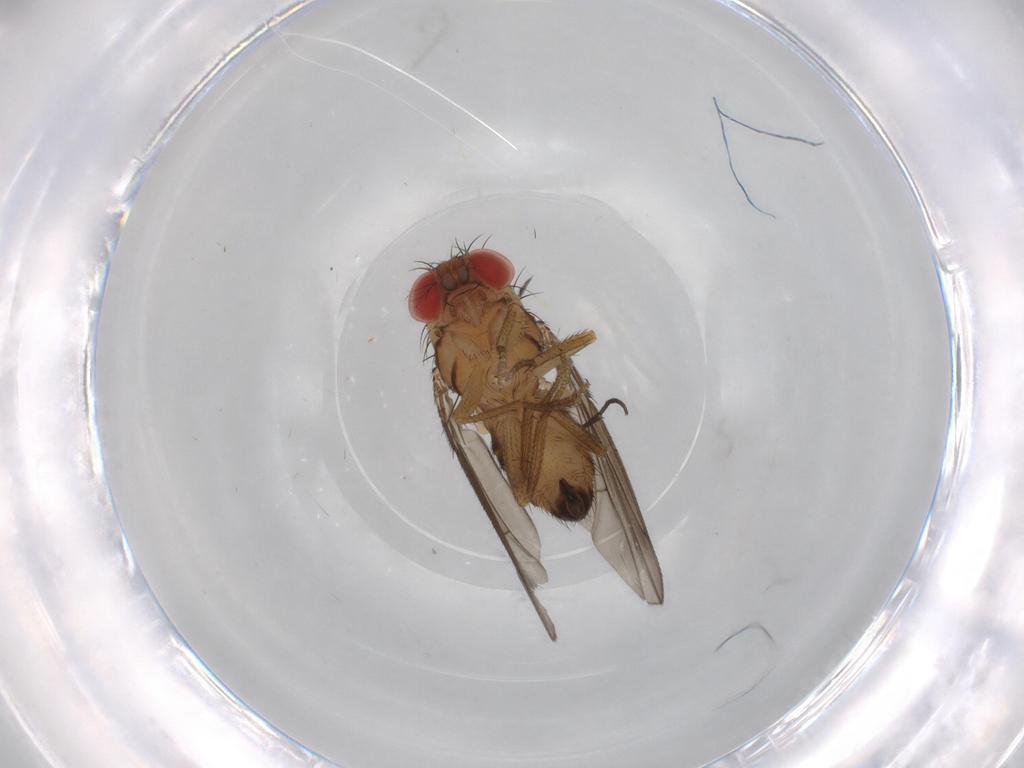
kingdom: Animalia
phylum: Arthropoda
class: Insecta
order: Diptera
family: Drosophilidae
